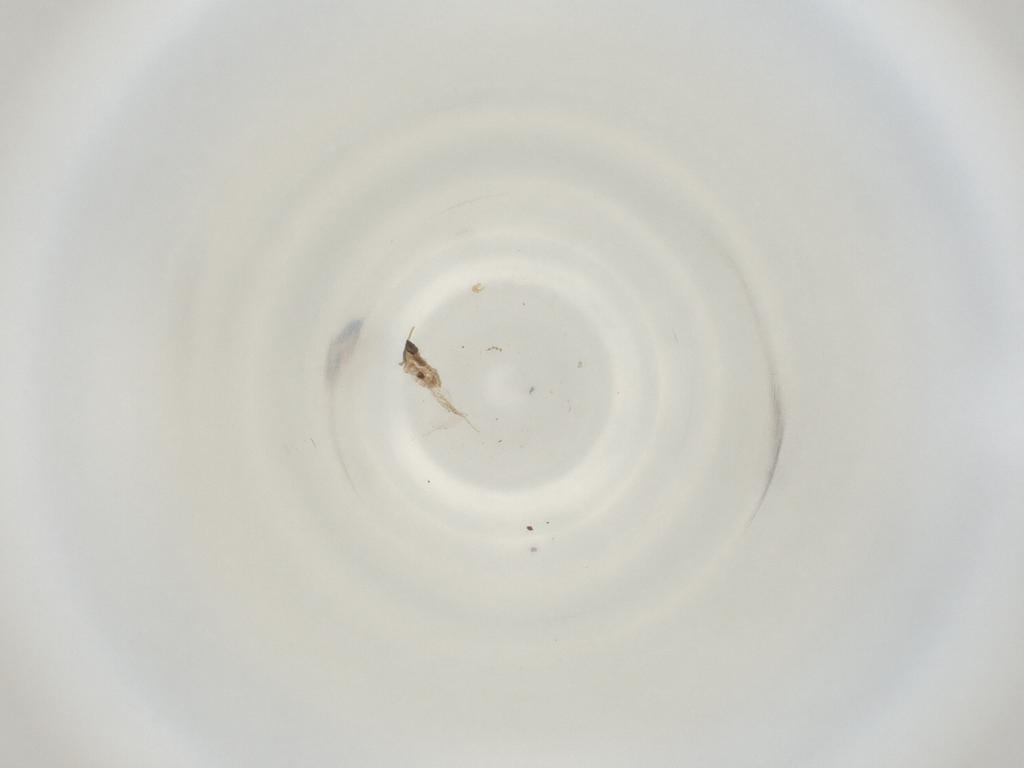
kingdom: Animalia
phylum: Arthropoda
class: Insecta
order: Diptera
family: Cecidomyiidae
